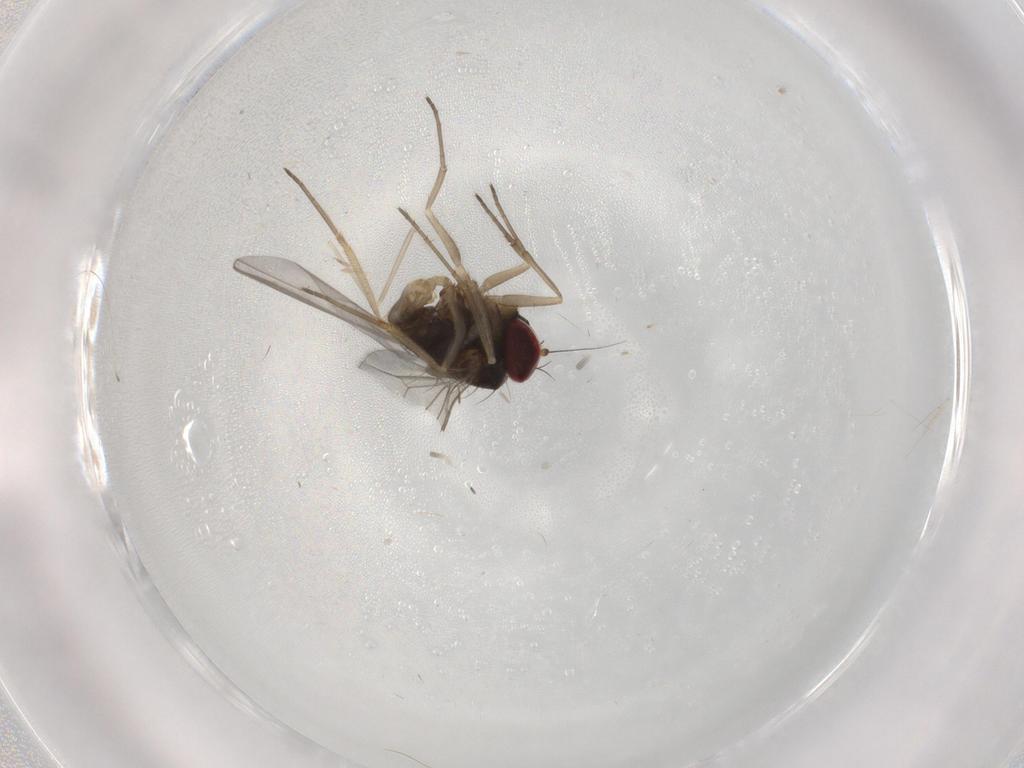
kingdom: Animalia
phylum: Arthropoda
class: Insecta
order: Diptera
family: Dolichopodidae
